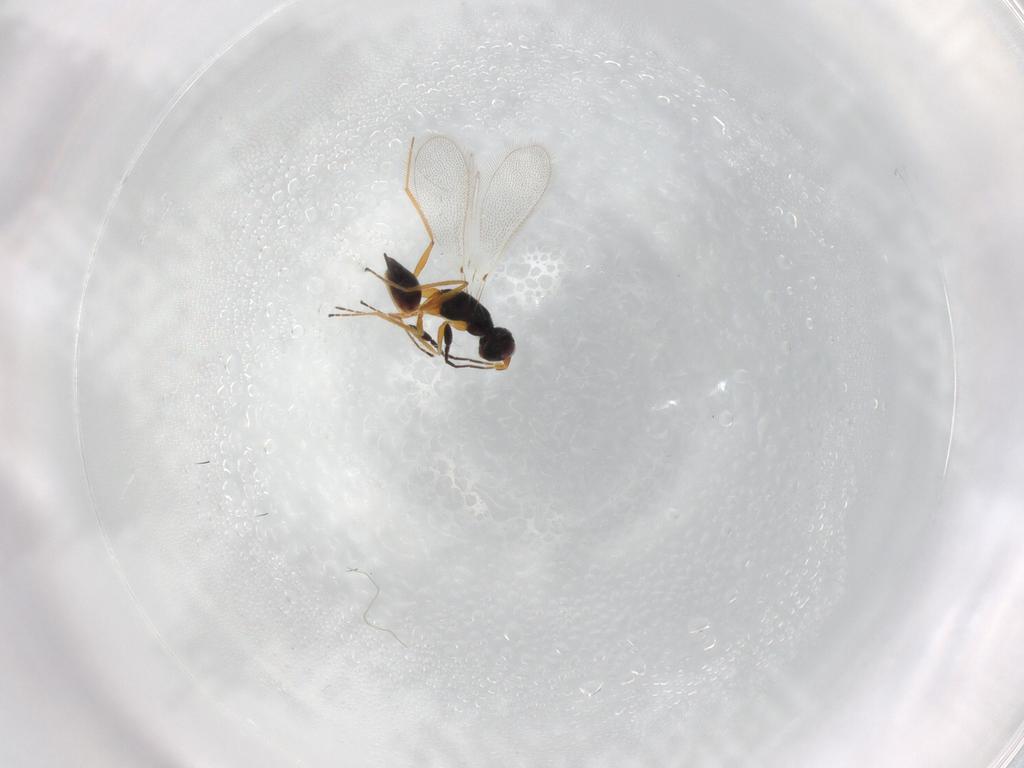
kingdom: Animalia
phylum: Arthropoda
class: Insecta
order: Hymenoptera
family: Formicidae
